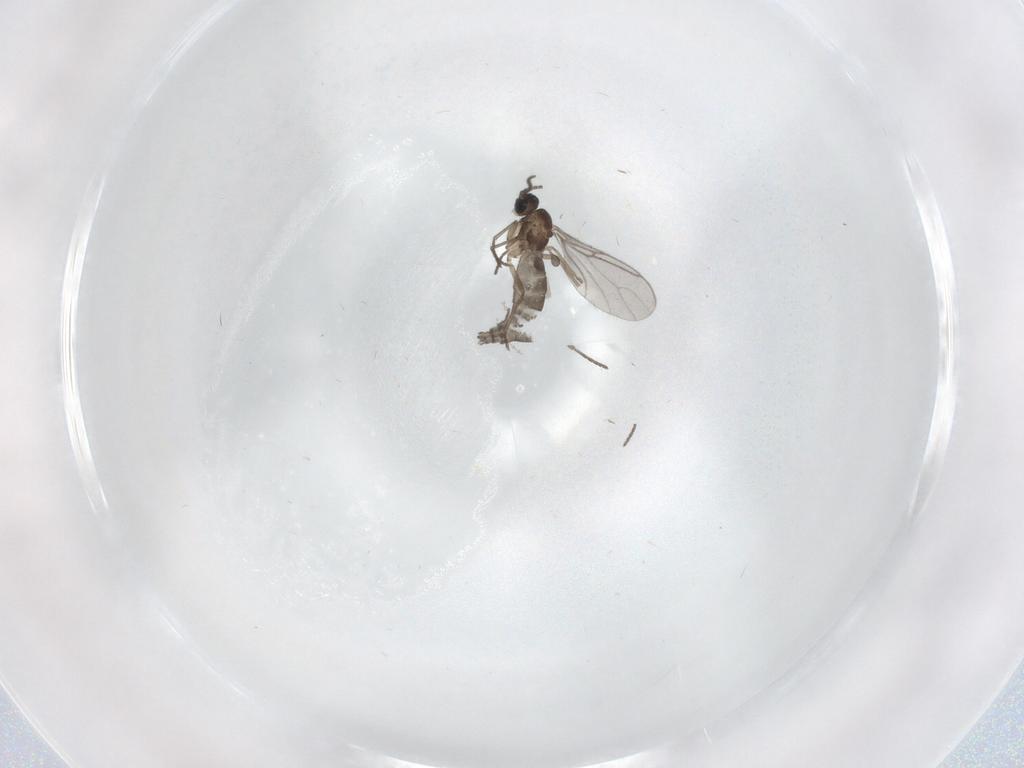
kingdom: Animalia
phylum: Arthropoda
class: Insecta
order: Diptera
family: Sciaridae
